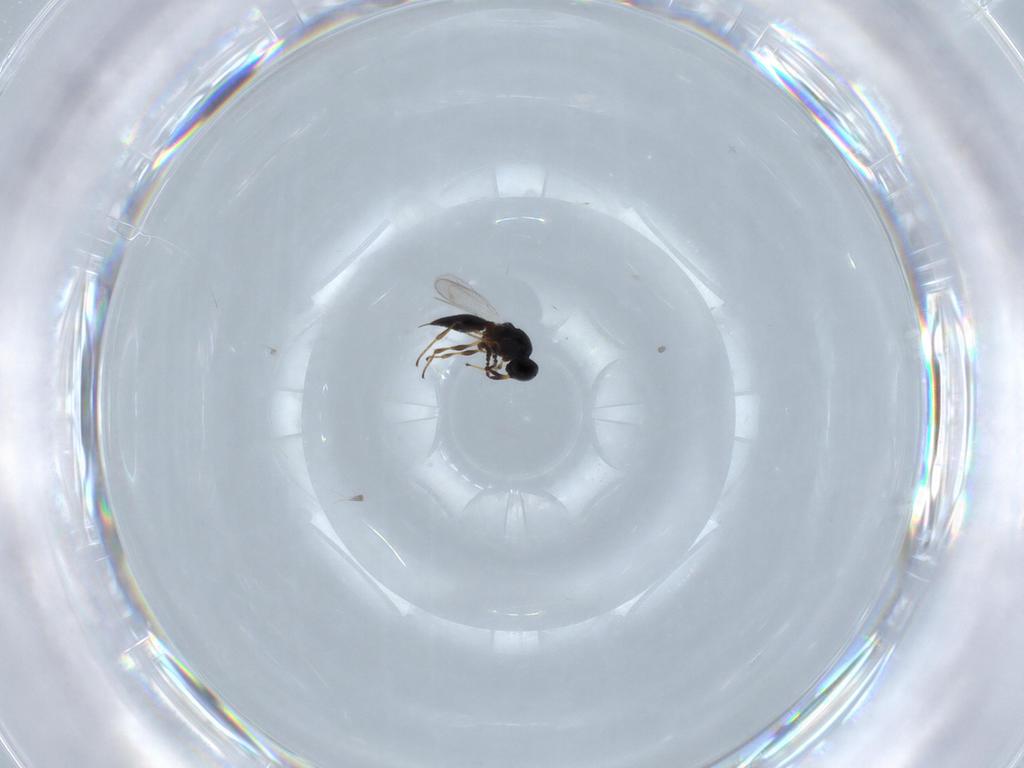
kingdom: Animalia
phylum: Arthropoda
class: Insecta
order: Hymenoptera
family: Platygastridae
